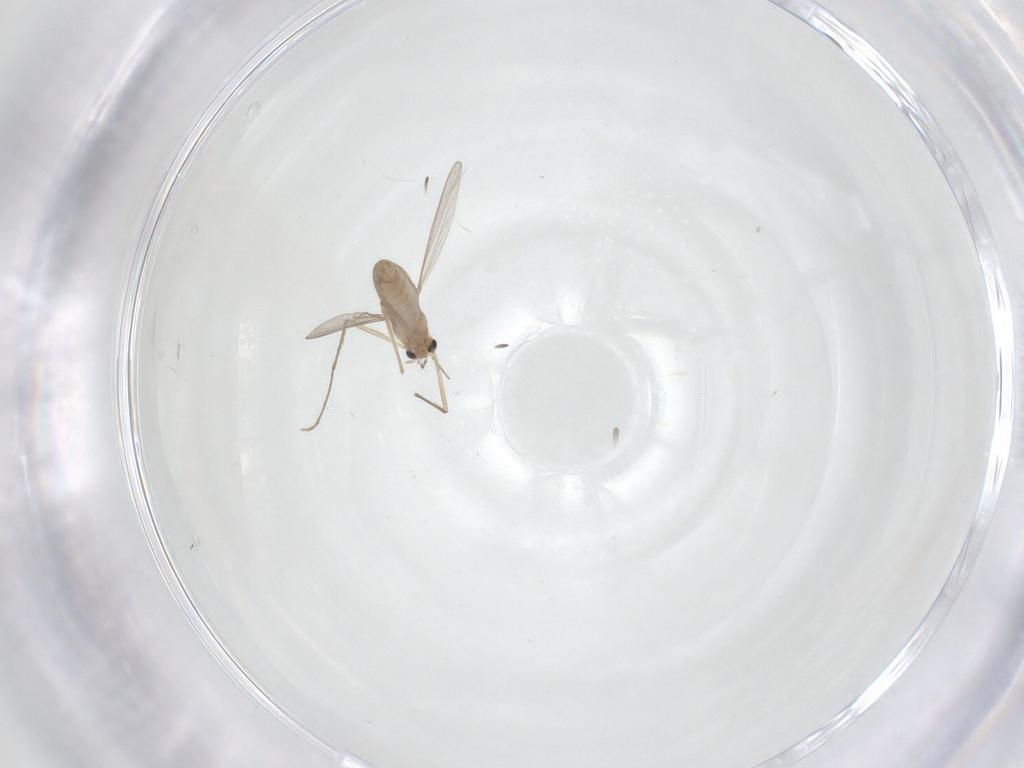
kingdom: Animalia
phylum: Arthropoda
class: Insecta
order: Diptera
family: Chironomidae
